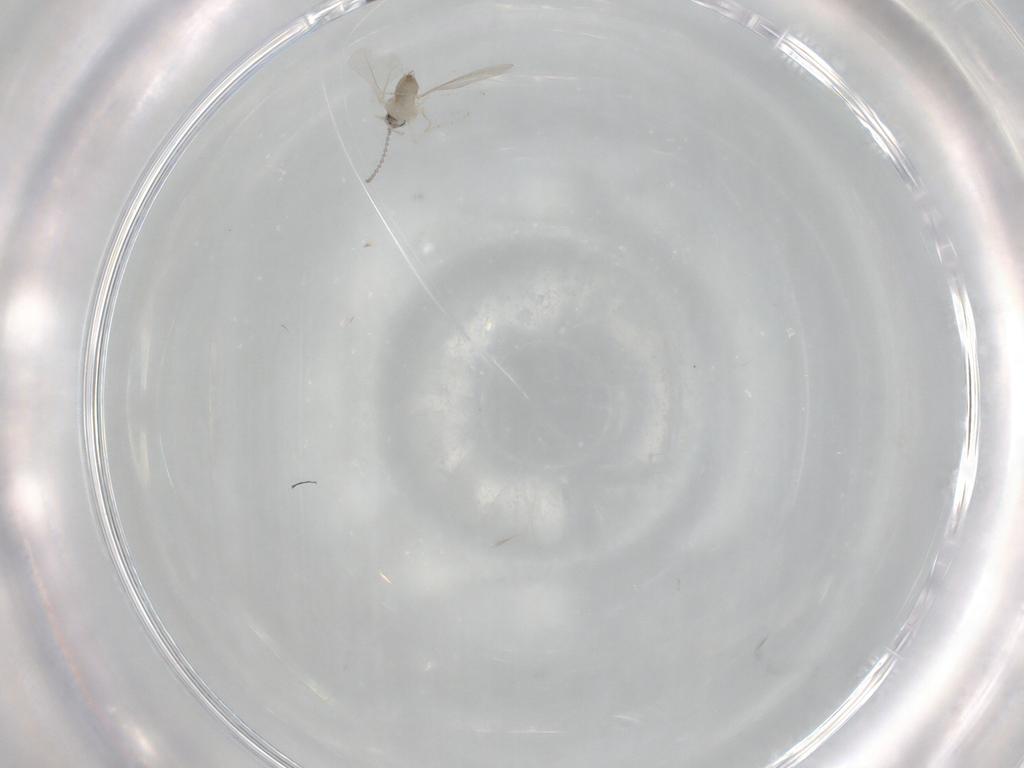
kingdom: Animalia
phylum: Arthropoda
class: Insecta
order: Diptera
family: Cecidomyiidae
